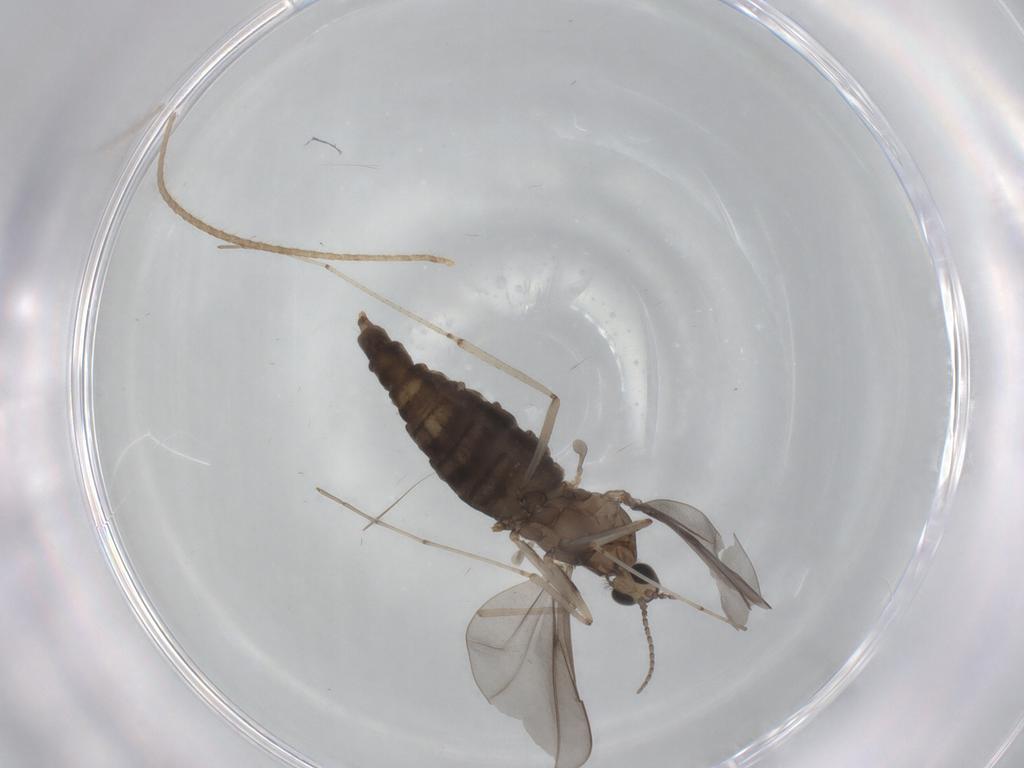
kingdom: Animalia
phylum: Arthropoda
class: Insecta
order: Diptera
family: Cecidomyiidae
